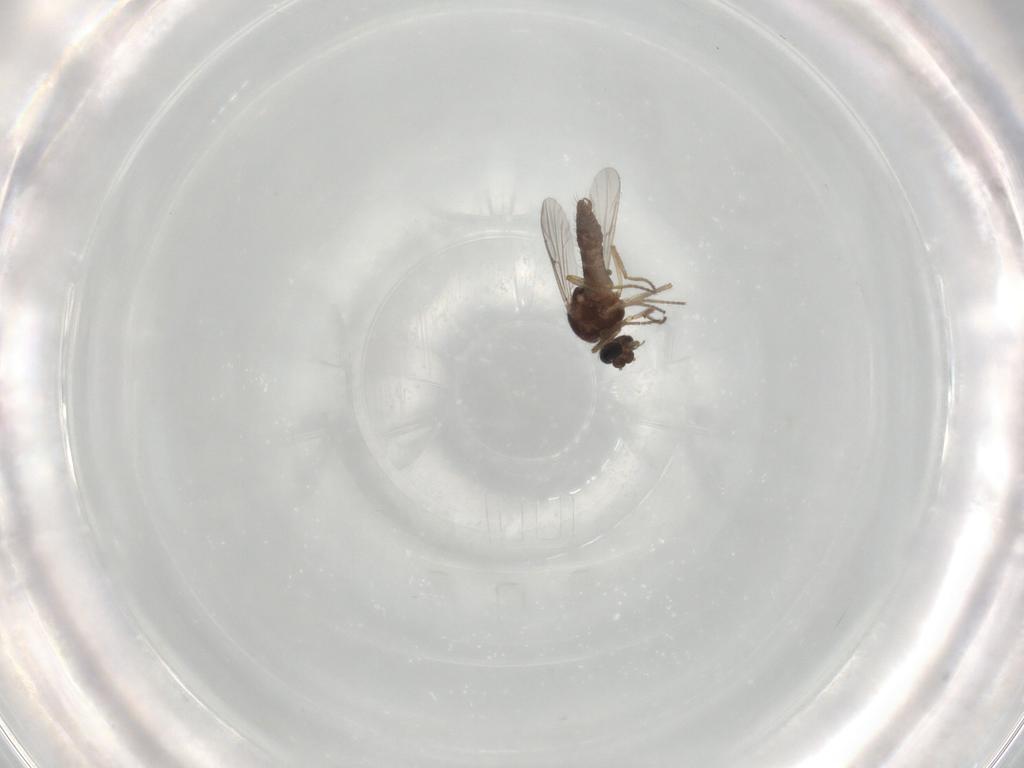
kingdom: Animalia
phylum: Arthropoda
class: Insecta
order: Diptera
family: Ceratopogonidae
